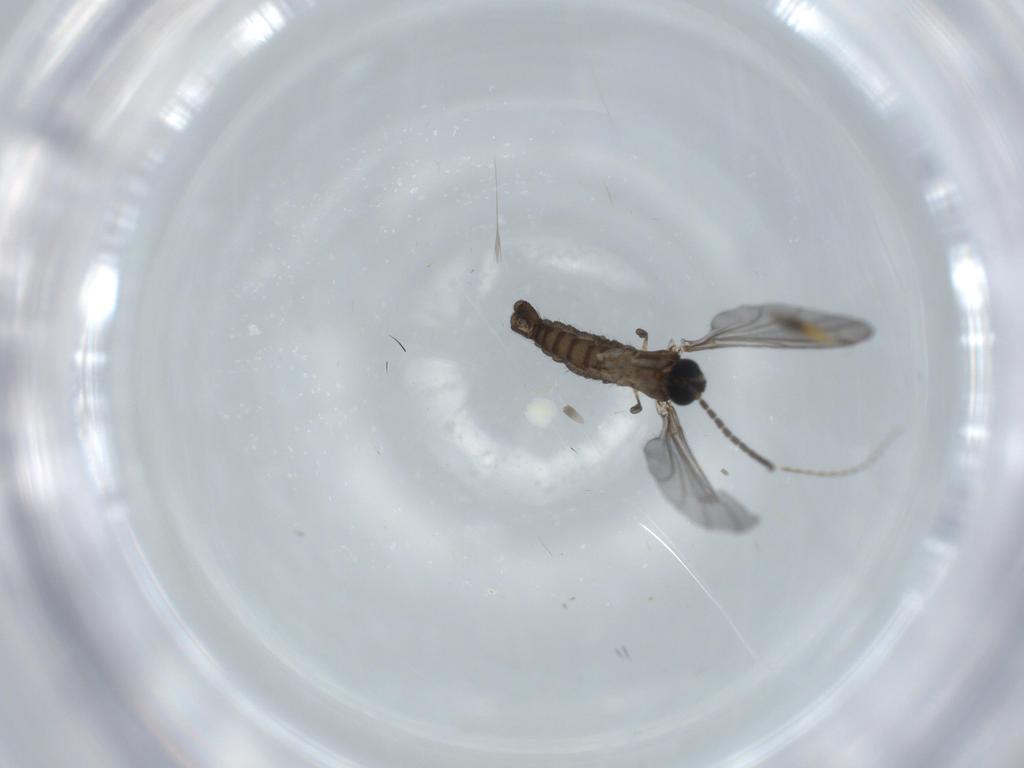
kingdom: Animalia
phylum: Arthropoda
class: Insecta
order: Diptera
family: Cecidomyiidae
